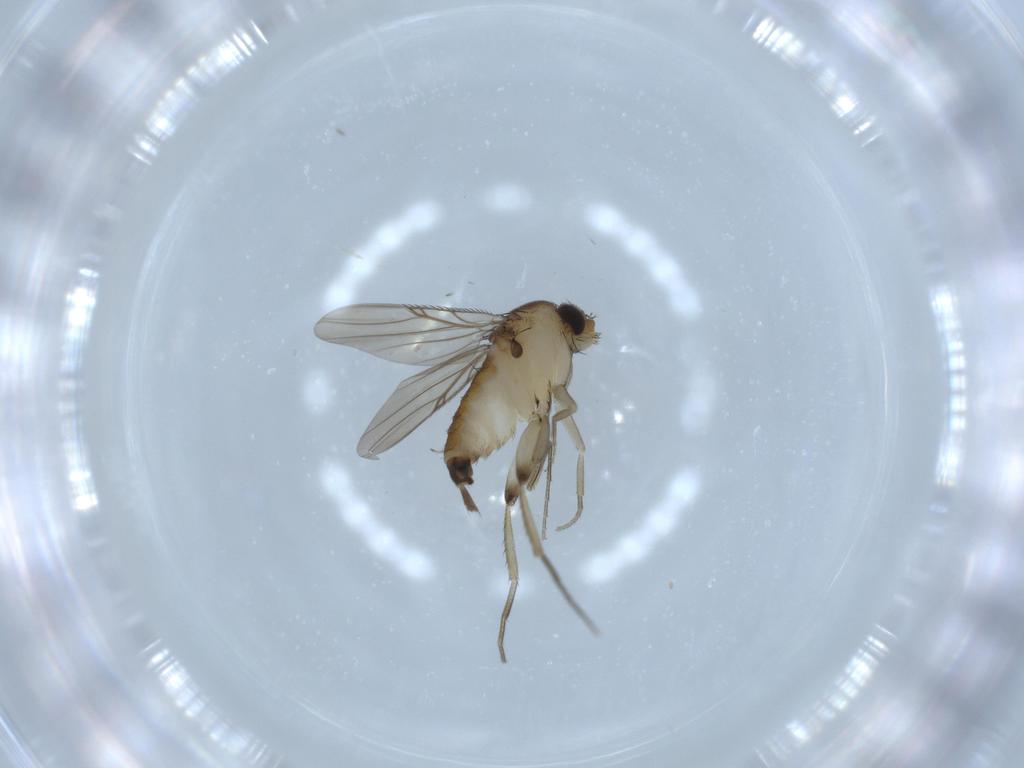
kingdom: Animalia
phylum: Arthropoda
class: Insecta
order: Diptera
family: Phoridae
